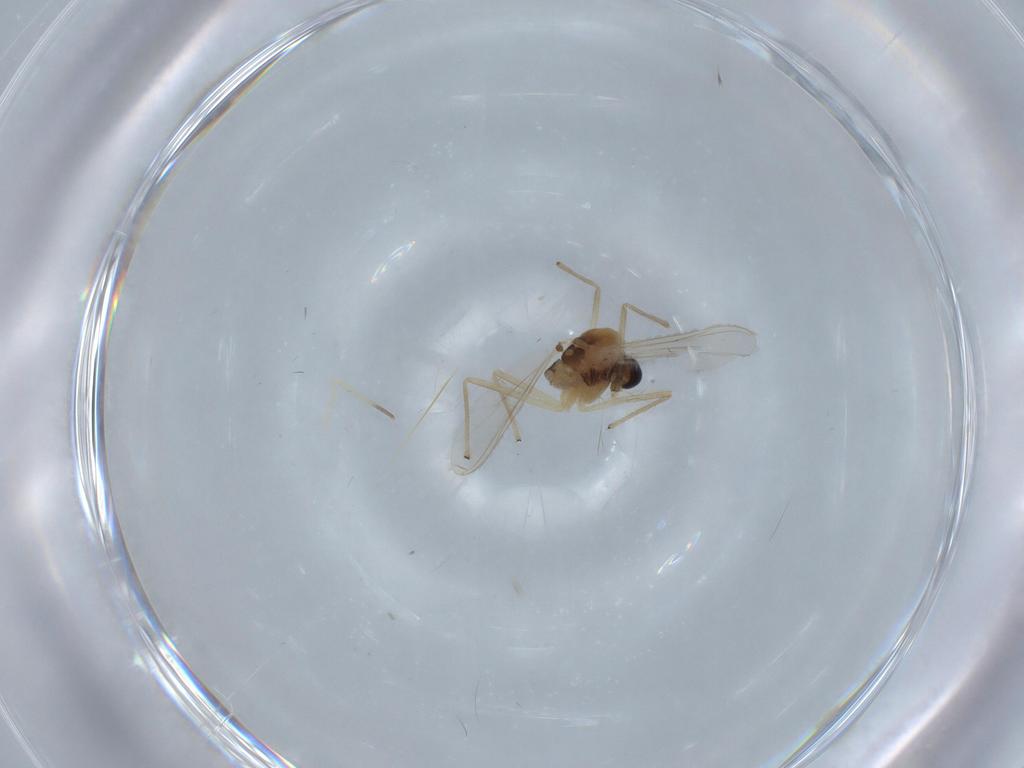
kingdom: Animalia
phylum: Arthropoda
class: Insecta
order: Diptera
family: Chironomidae
